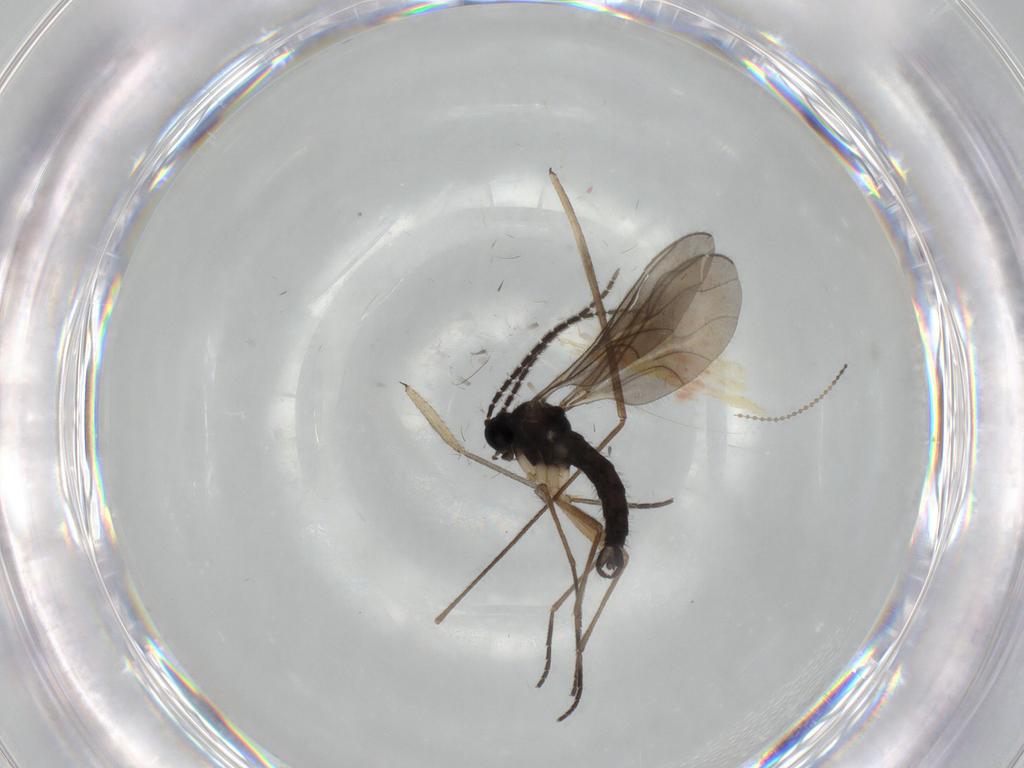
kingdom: Animalia
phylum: Arthropoda
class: Insecta
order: Diptera
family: Sciaridae
